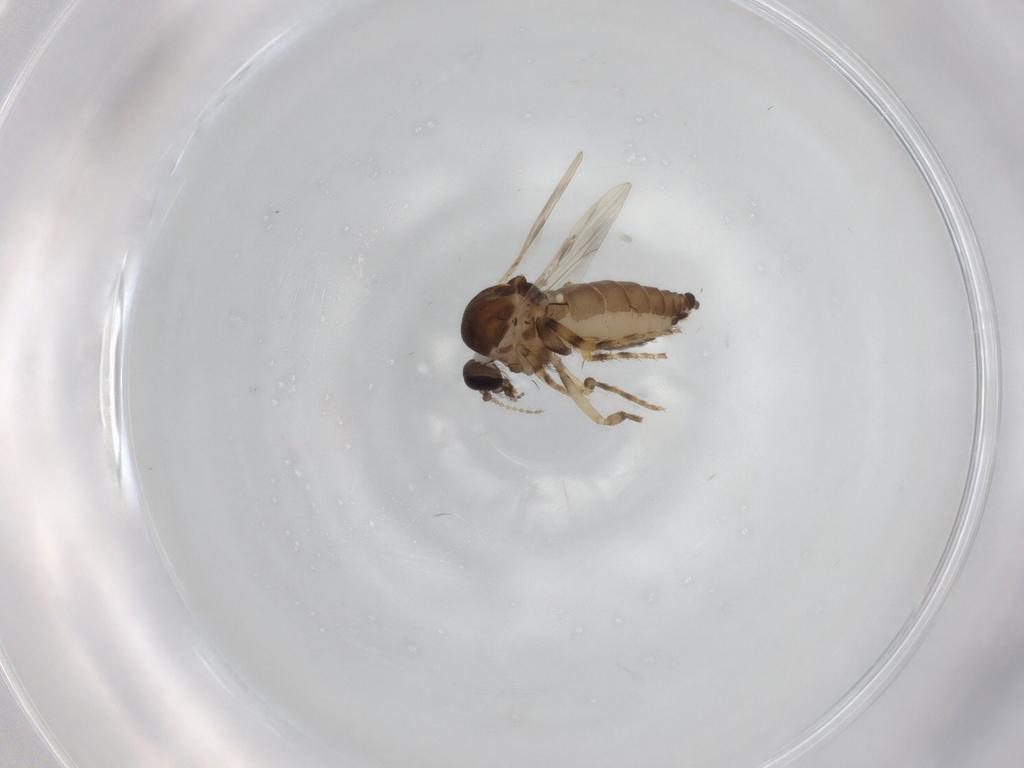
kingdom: Animalia
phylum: Arthropoda
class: Insecta
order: Diptera
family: Ceratopogonidae
